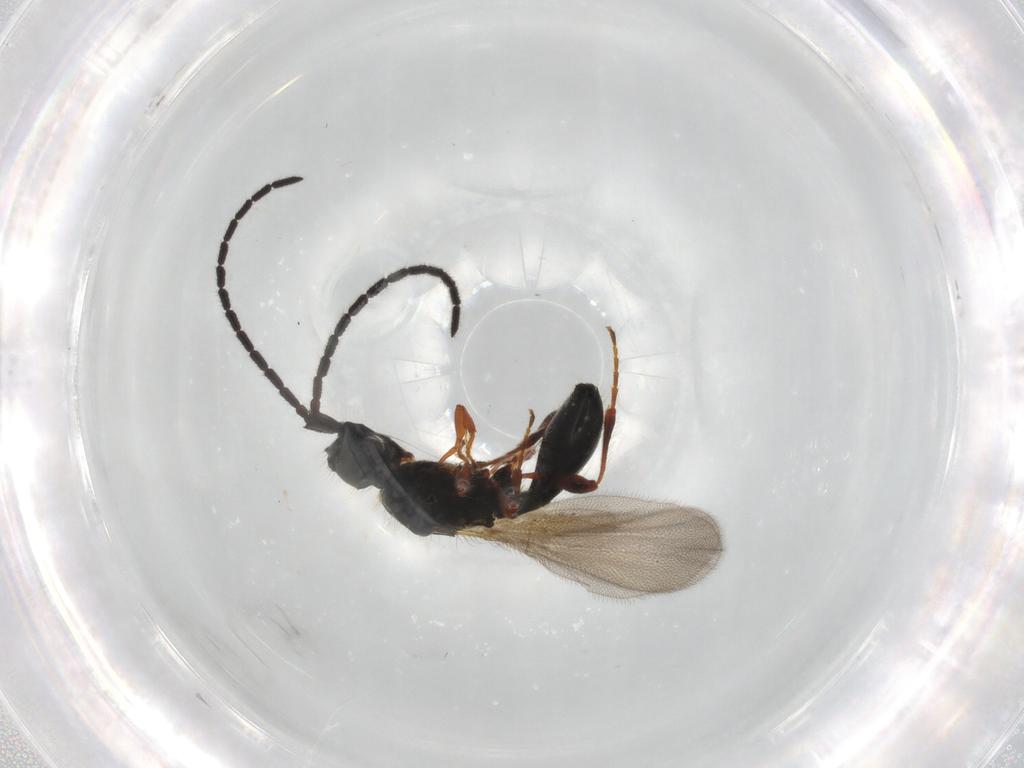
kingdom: Animalia
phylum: Arthropoda
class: Insecta
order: Hymenoptera
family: Diapriidae
